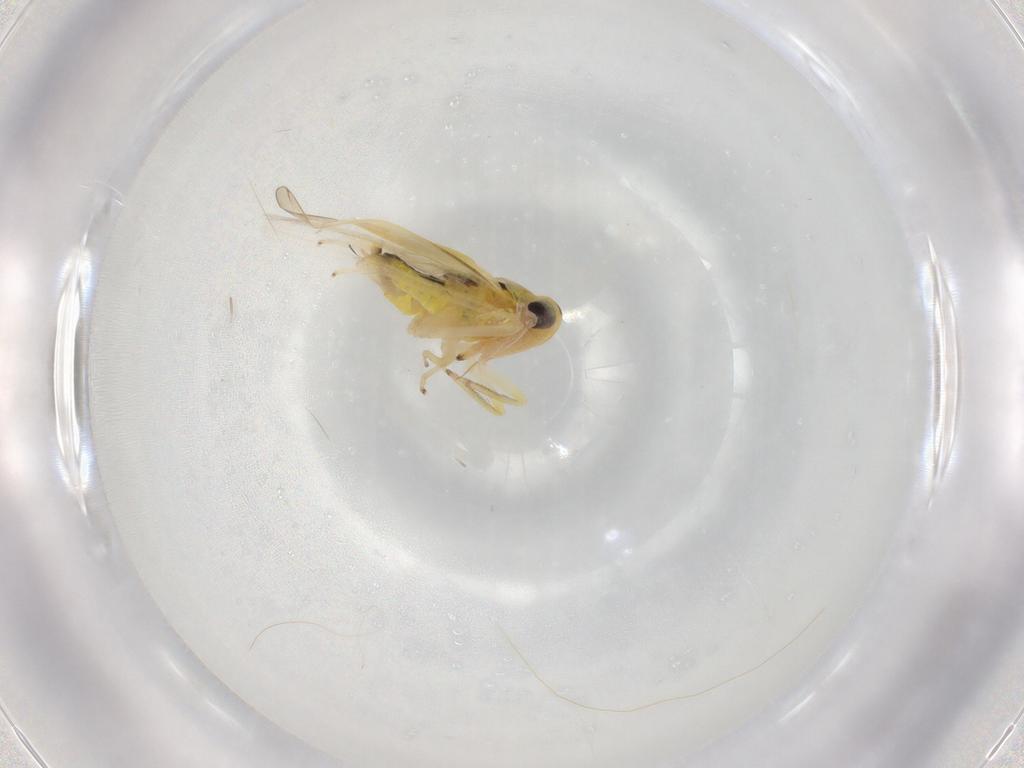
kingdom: Animalia
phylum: Arthropoda
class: Insecta
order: Hemiptera
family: Cicadellidae
